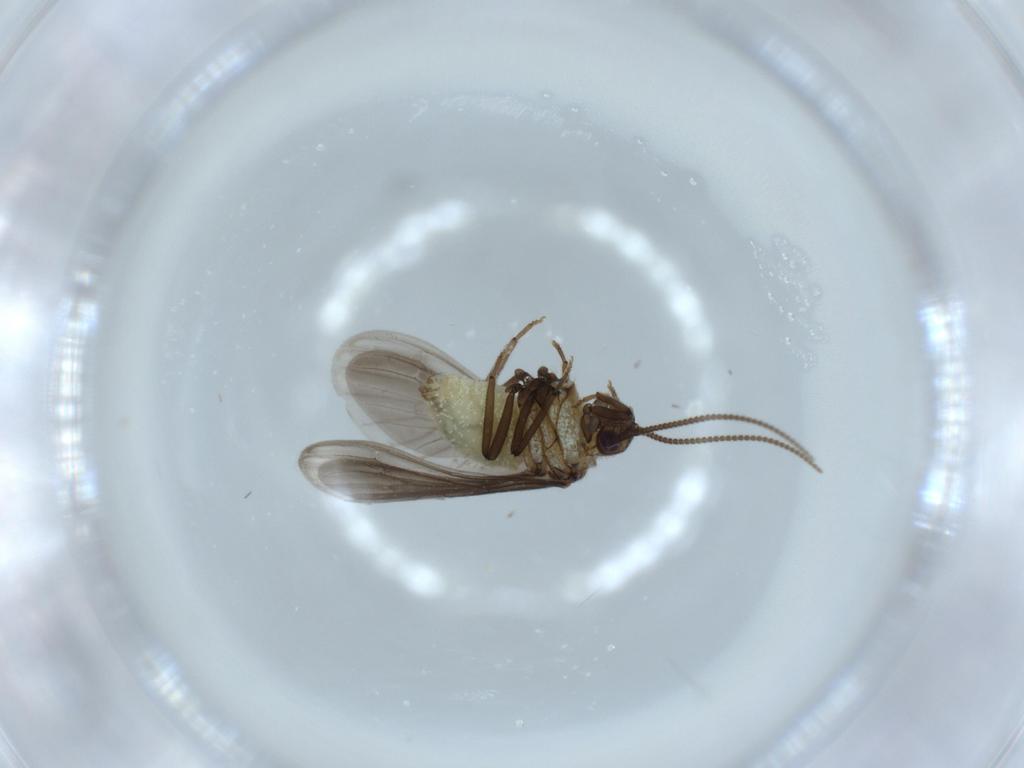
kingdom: Animalia
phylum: Arthropoda
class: Insecta
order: Neuroptera
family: Coniopterygidae
